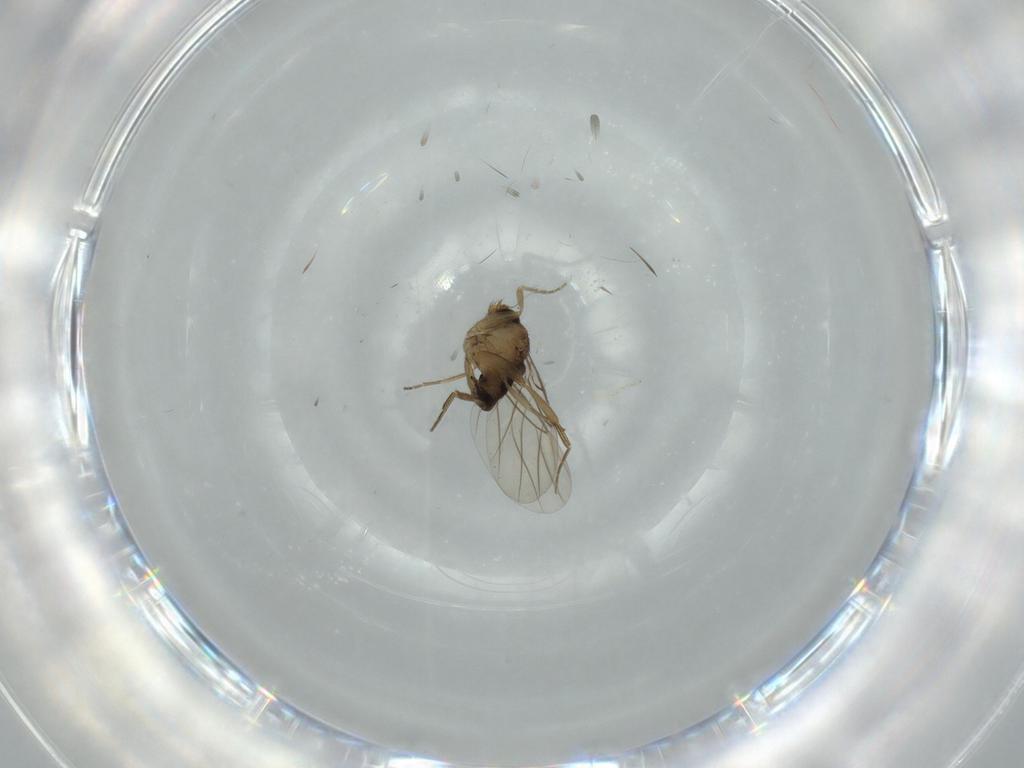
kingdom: Animalia
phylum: Arthropoda
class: Insecta
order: Diptera
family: Phoridae
